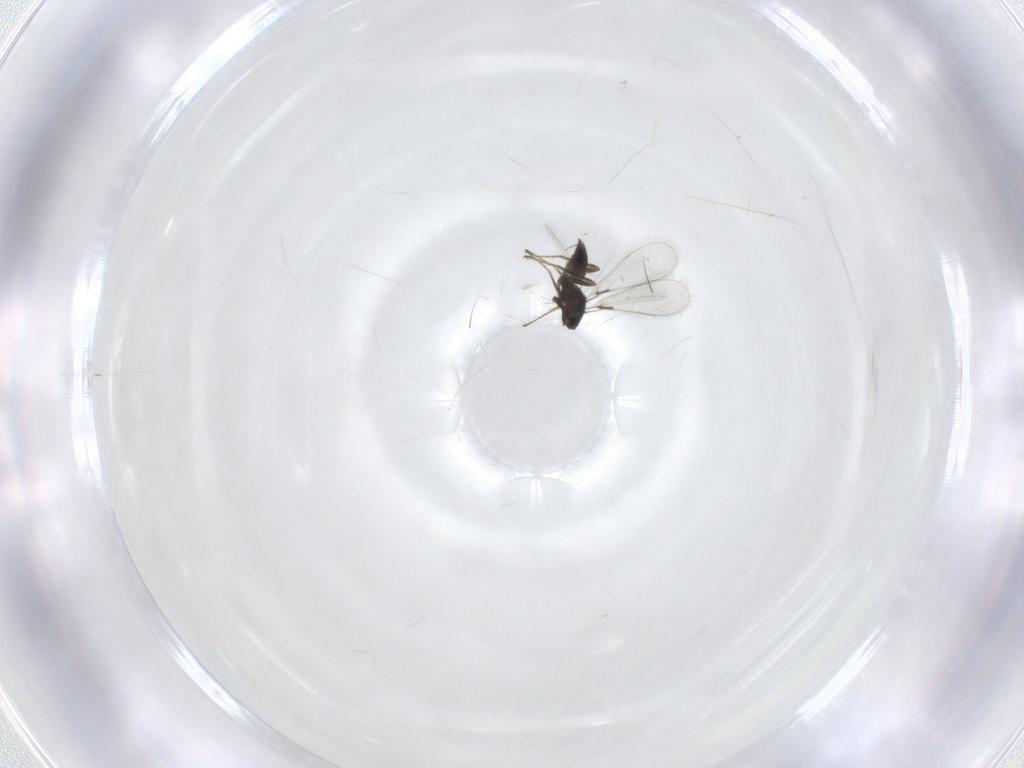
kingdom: Animalia
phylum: Arthropoda
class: Insecta
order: Hymenoptera
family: Mymaridae
